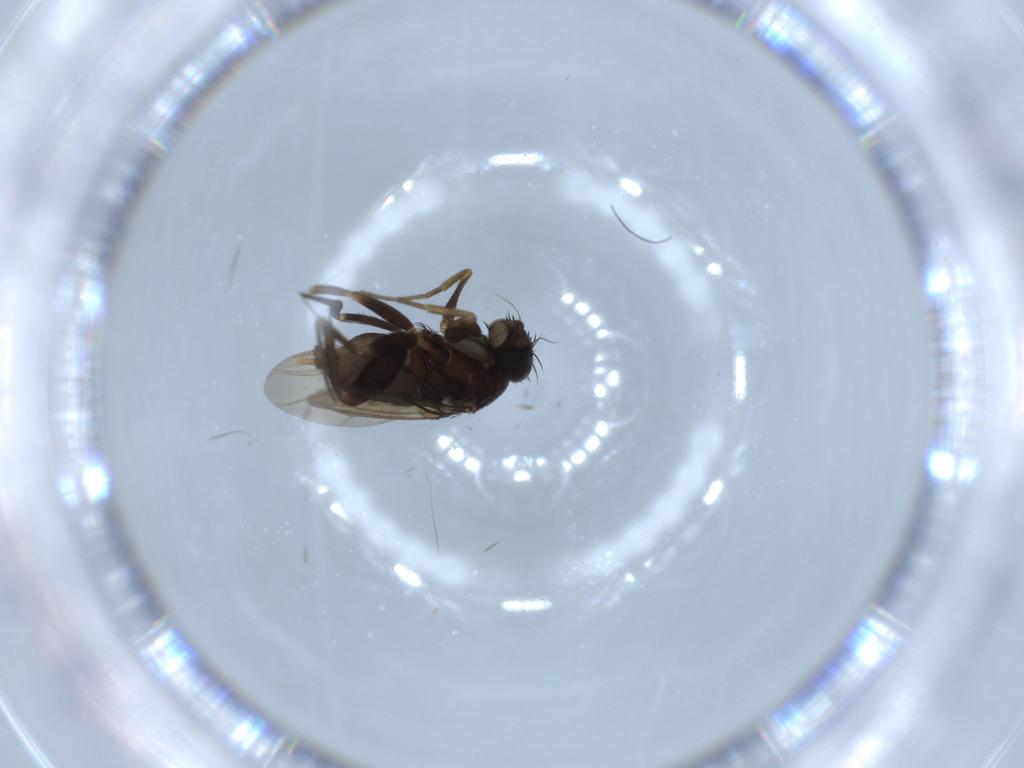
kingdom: Animalia
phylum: Arthropoda
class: Insecta
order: Diptera
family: Phoridae
